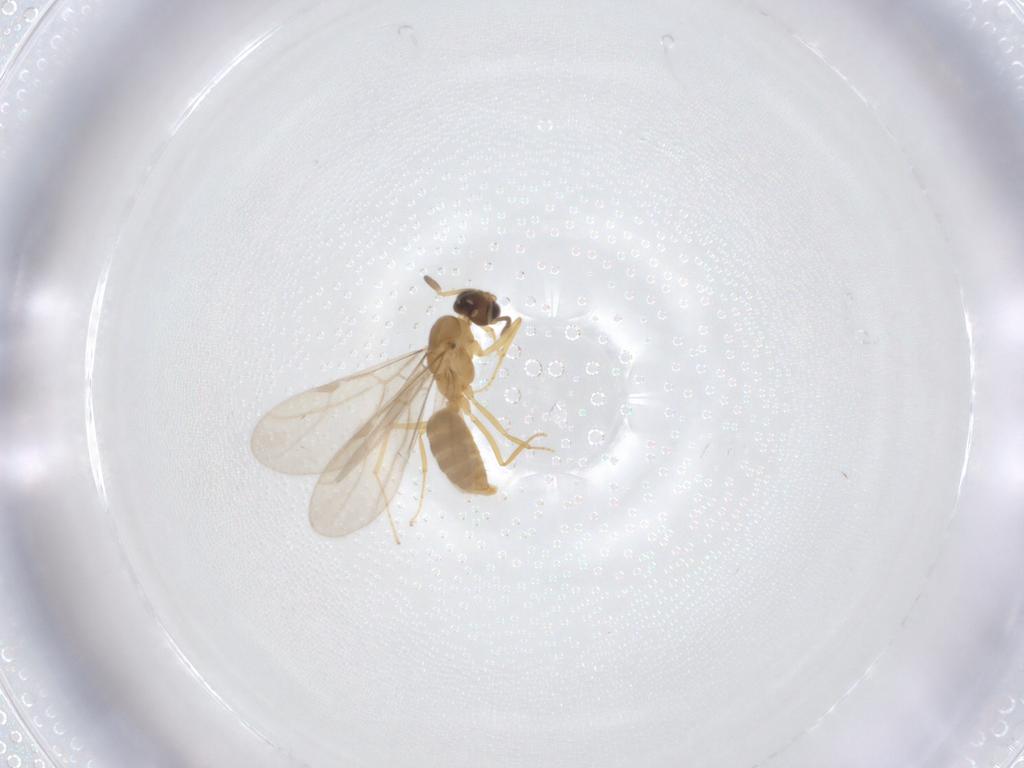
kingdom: Animalia
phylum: Arthropoda
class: Insecta
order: Hymenoptera
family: Formicidae
